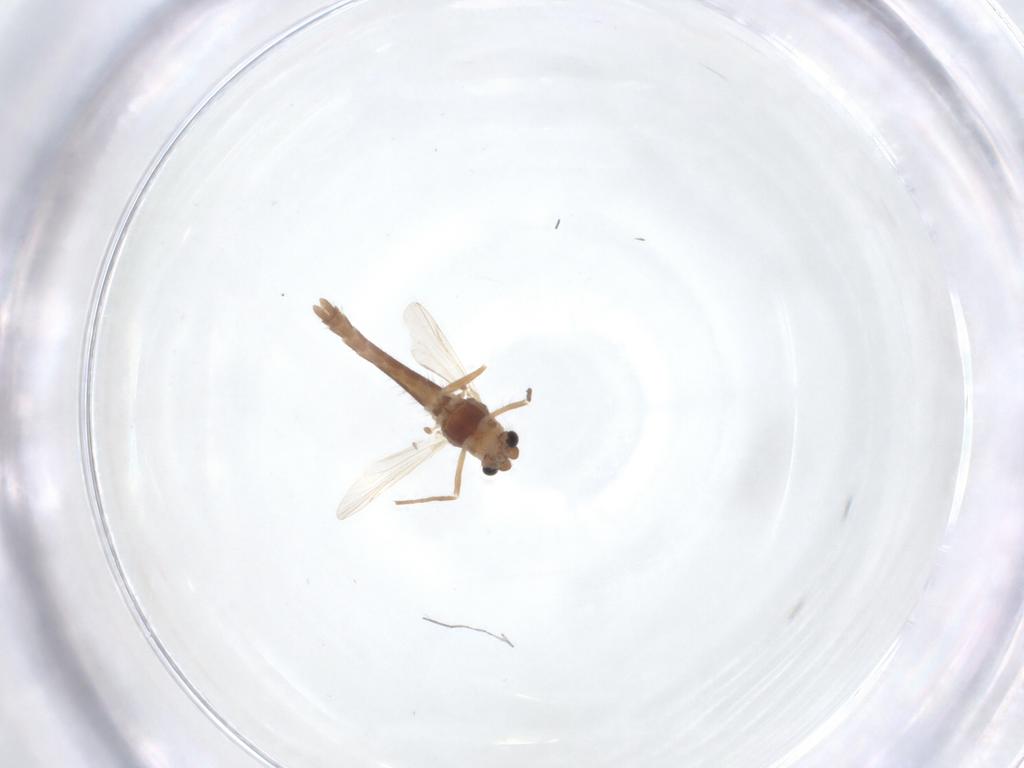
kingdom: Animalia
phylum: Arthropoda
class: Insecta
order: Diptera
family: Chironomidae
